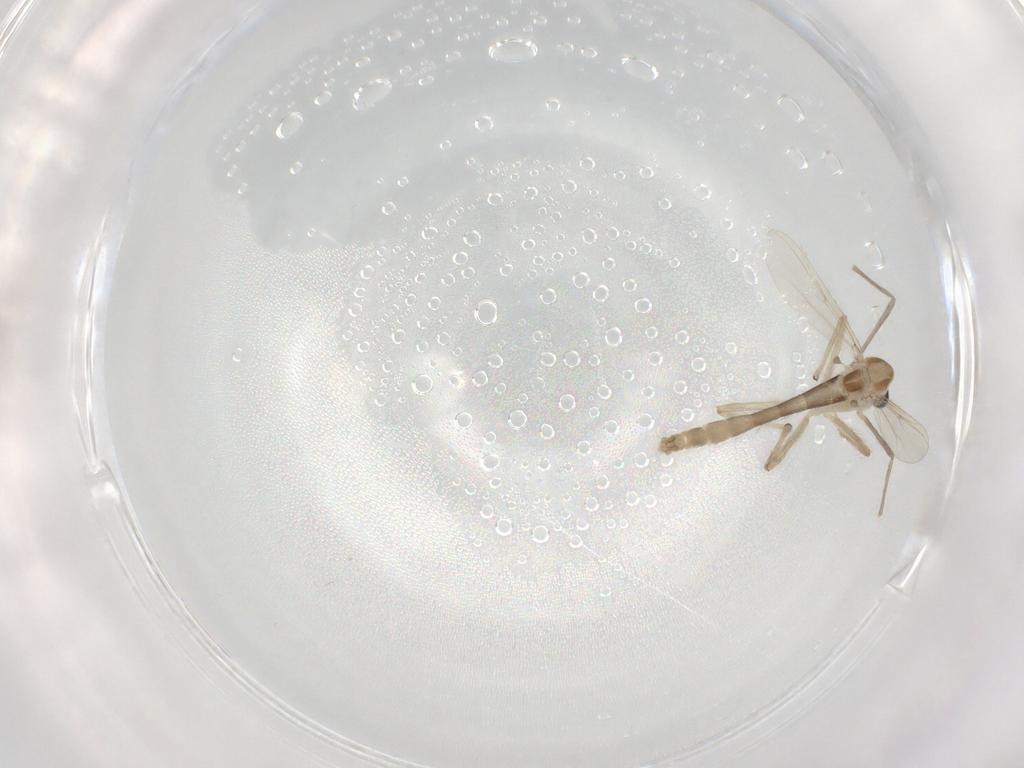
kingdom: Animalia
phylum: Arthropoda
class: Insecta
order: Diptera
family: Chironomidae
